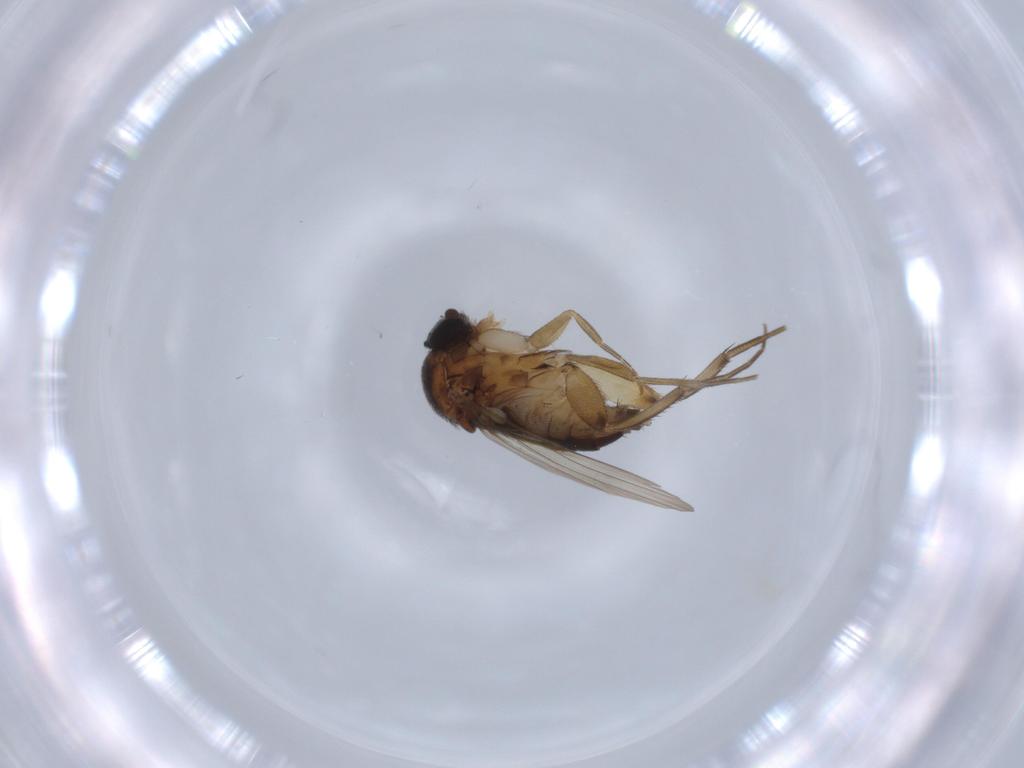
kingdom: Animalia
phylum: Arthropoda
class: Insecta
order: Diptera
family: Phoridae
